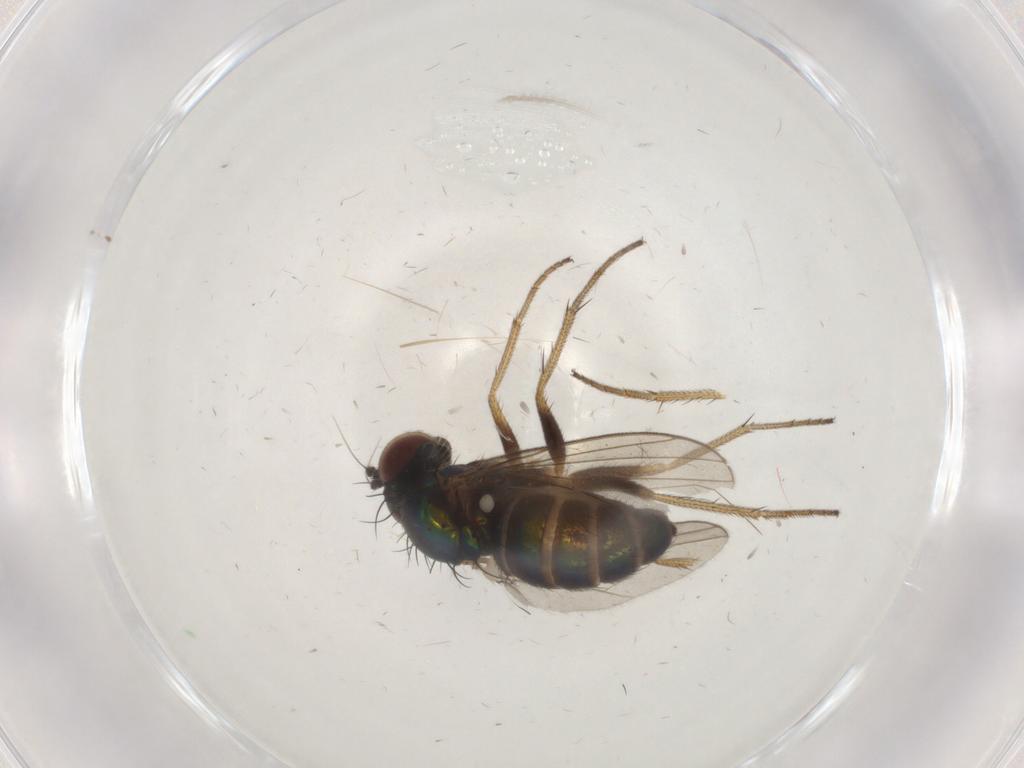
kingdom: Animalia
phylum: Arthropoda
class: Insecta
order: Diptera
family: Dolichopodidae
